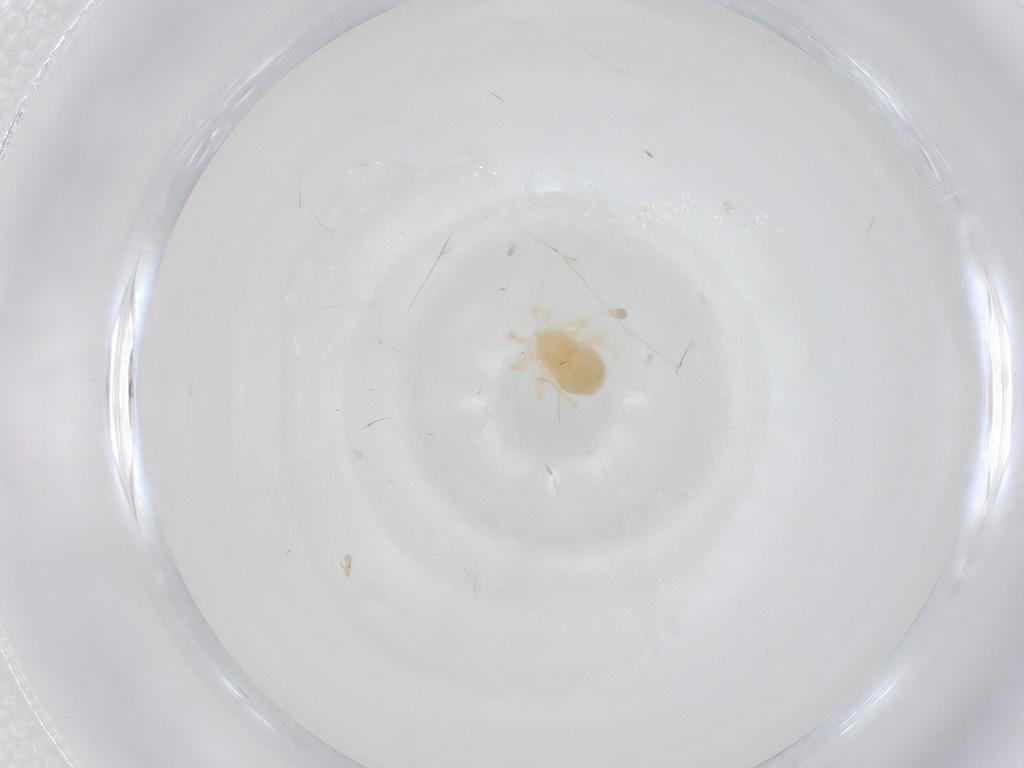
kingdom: Animalia
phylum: Arthropoda
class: Arachnida
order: Trombidiformes
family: Anystidae
